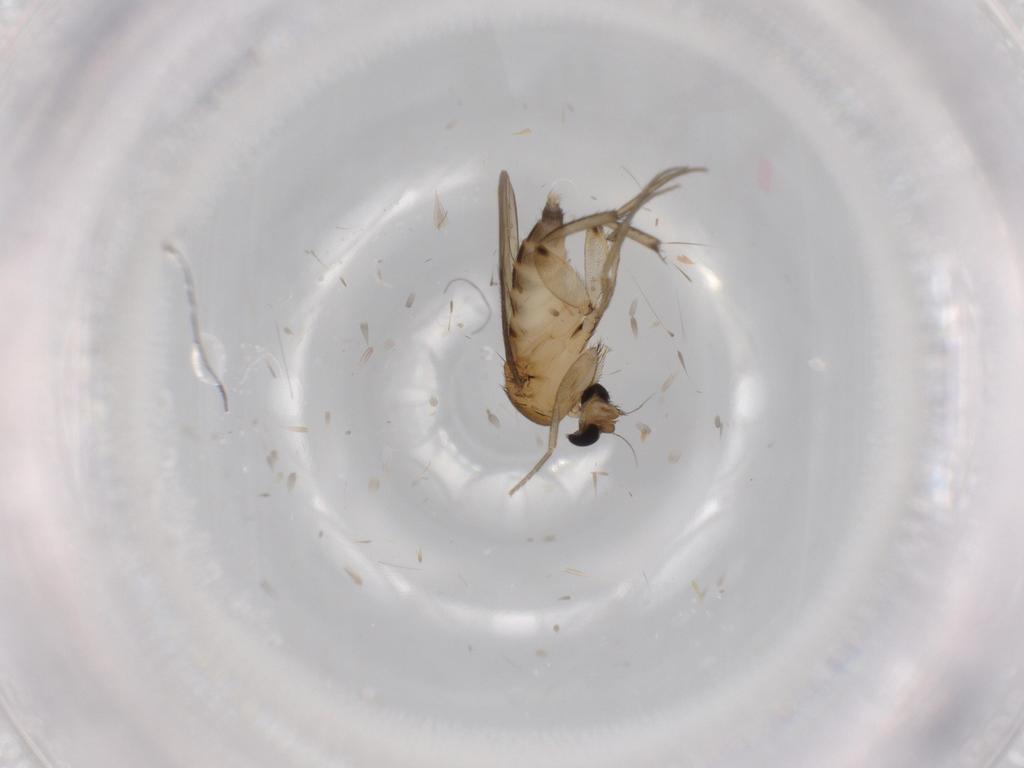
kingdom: Animalia
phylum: Arthropoda
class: Insecta
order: Diptera
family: Phoridae
